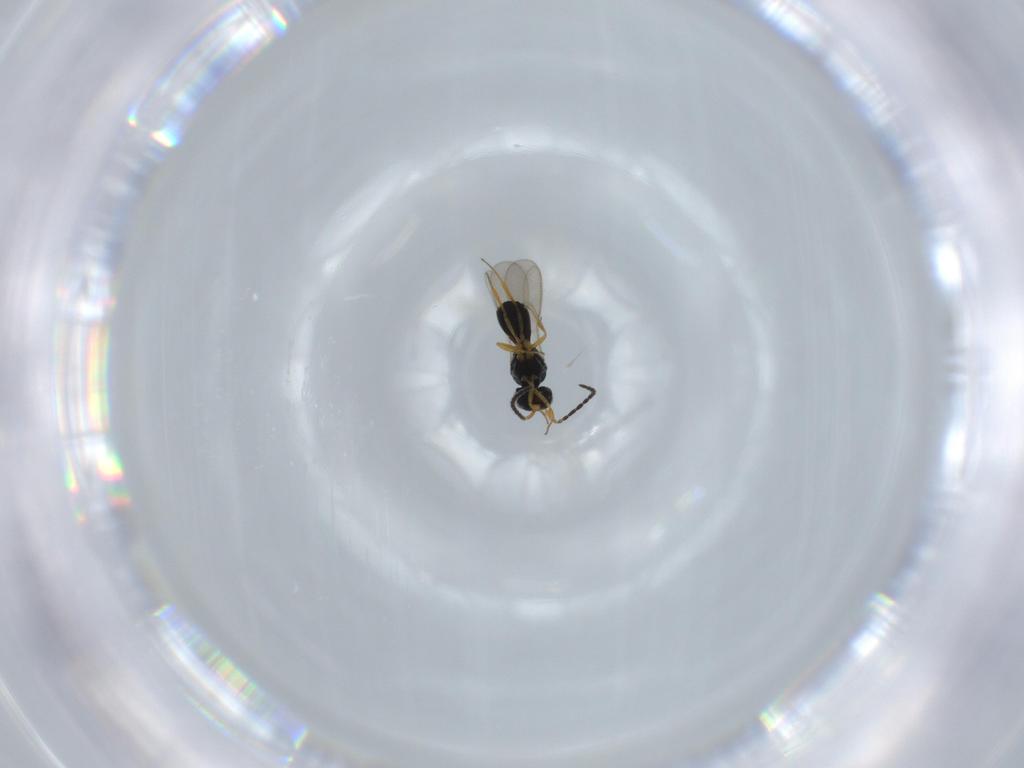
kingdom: Animalia
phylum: Arthropoda
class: Insecta
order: Hymenoptera
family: Scelionidae
